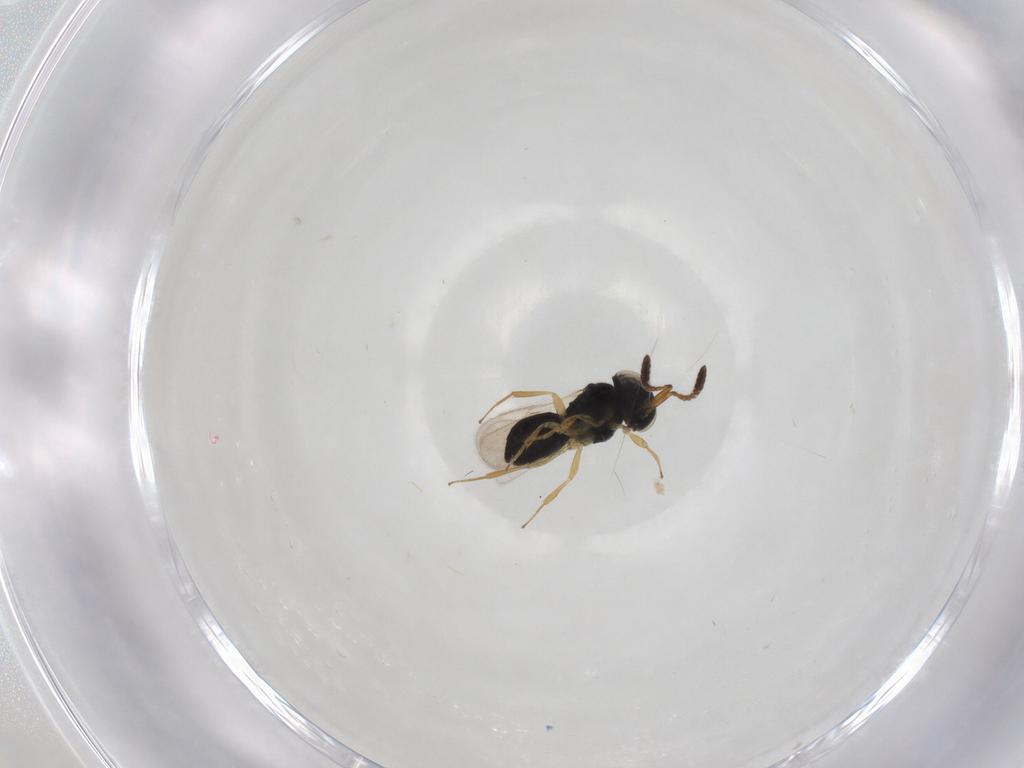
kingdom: Animalia
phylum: Arthropoda
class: Insecta
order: Hymenoptera
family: Scelionidae
